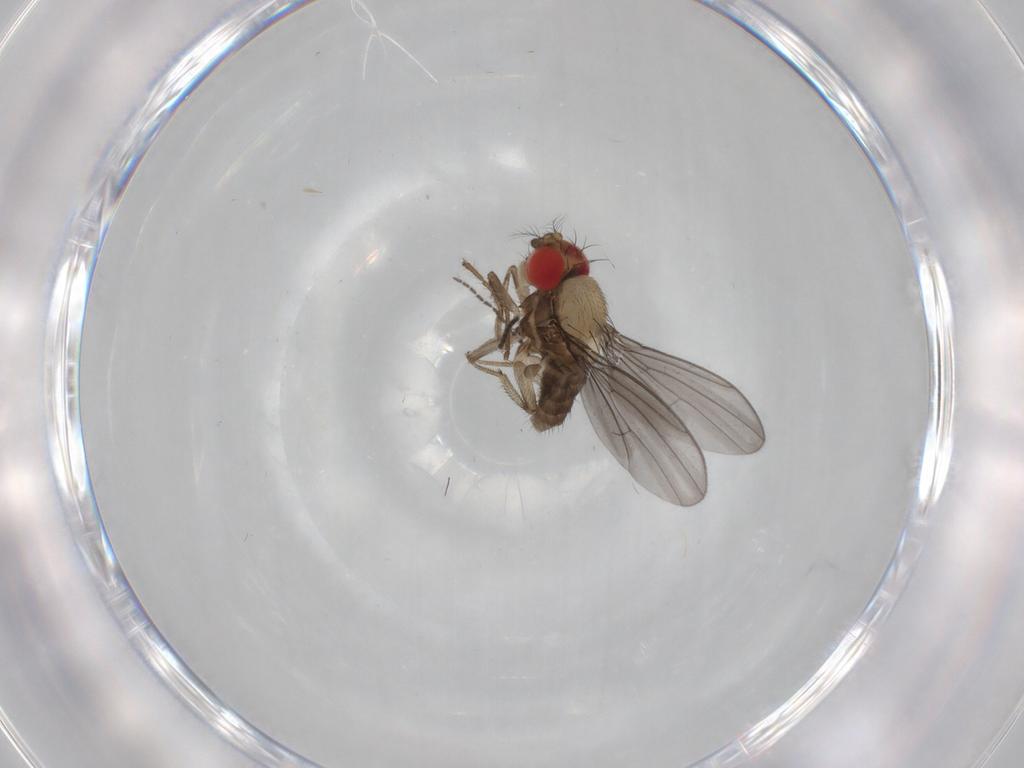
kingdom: Animalia
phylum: Arthropoda
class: Insecta
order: Diptera
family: Drosophilidae
